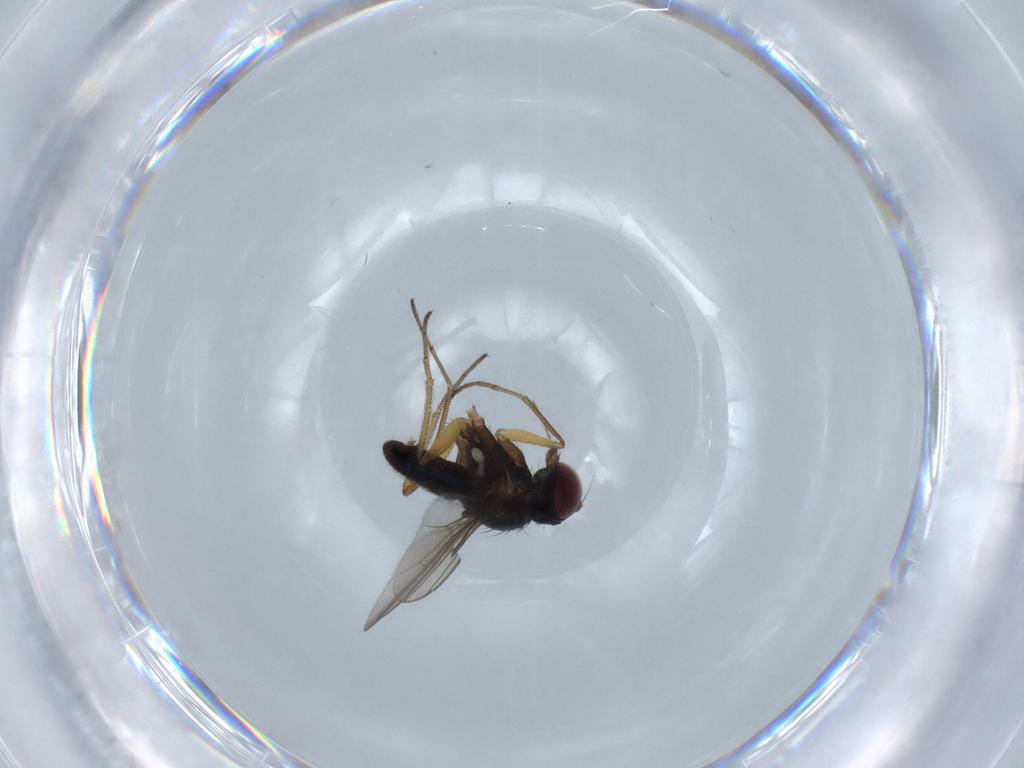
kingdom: Animalia
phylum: Arthropoda
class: Insecta
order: Diptera
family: Dolichopodidae
